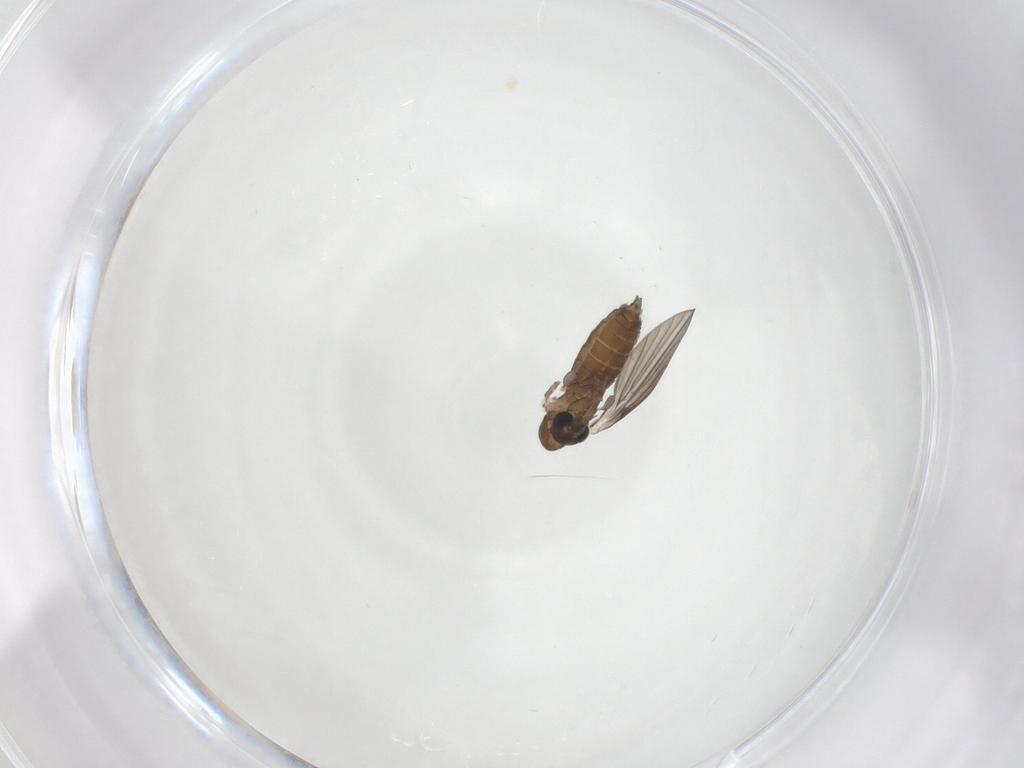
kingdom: Animalia
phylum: Arthropoda
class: Insecta
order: Diptera
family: Psychodidae
